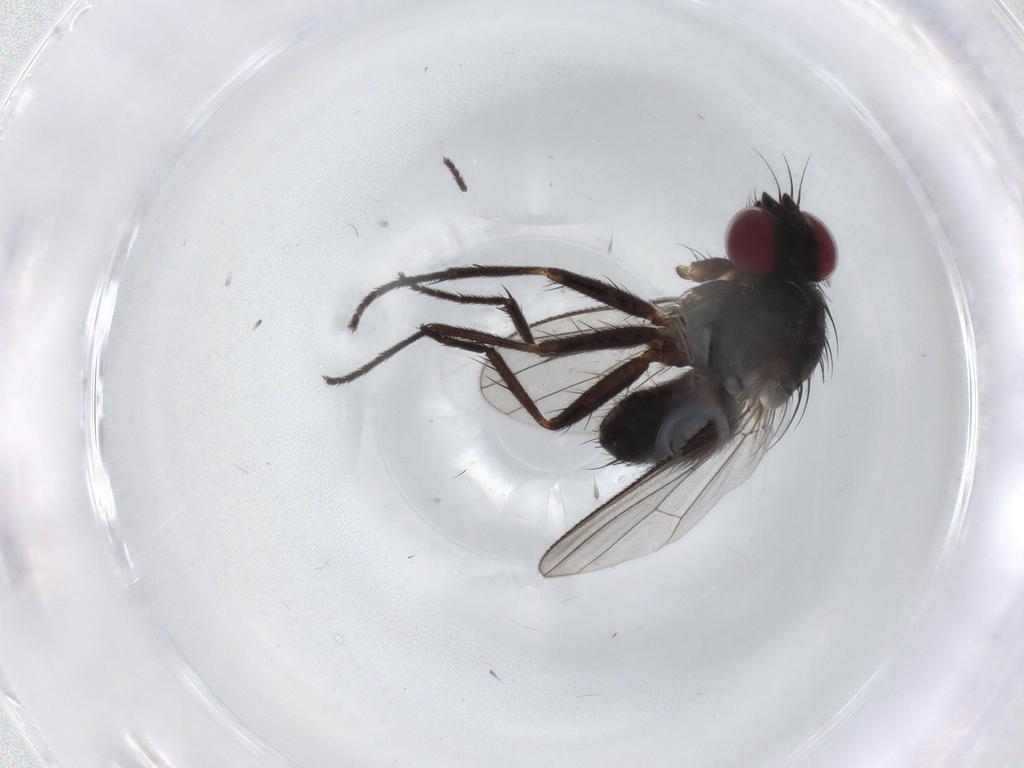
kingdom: Animalia
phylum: Arthropoda
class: Insecta
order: Diptera
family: Muscidae
